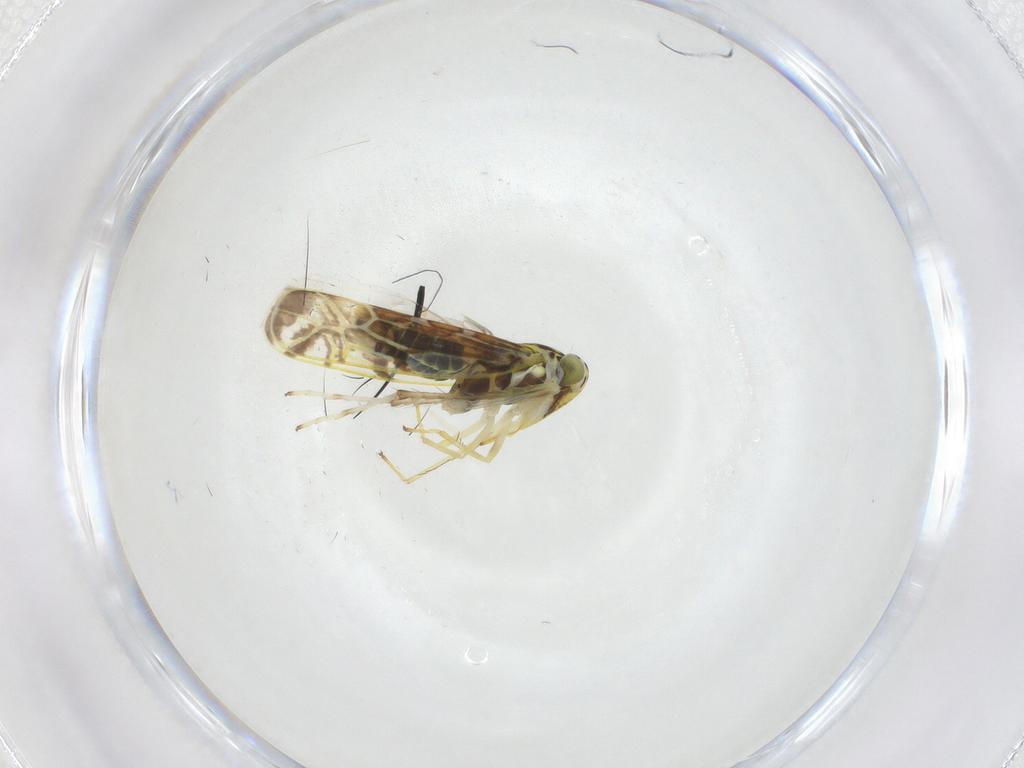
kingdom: Animalia
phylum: Arthropoda
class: Insecta
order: Hemiptera
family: Cicadellidae
